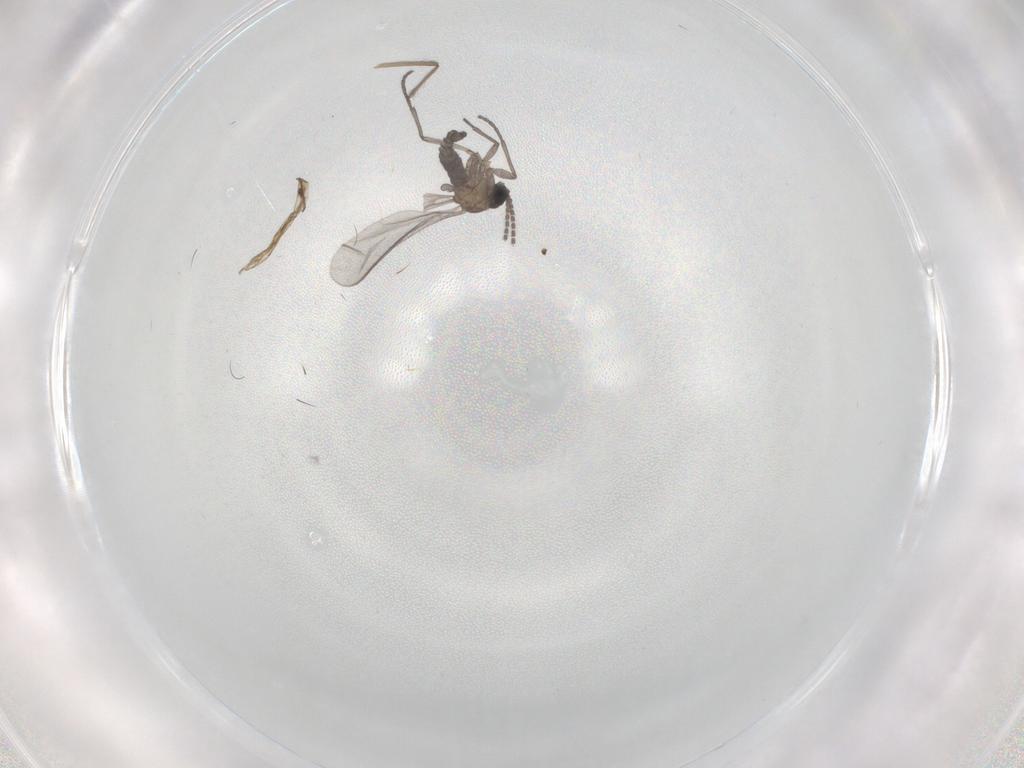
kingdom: Animalia
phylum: Arthropoda
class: Insecta
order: Diptera
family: Sciaridae
